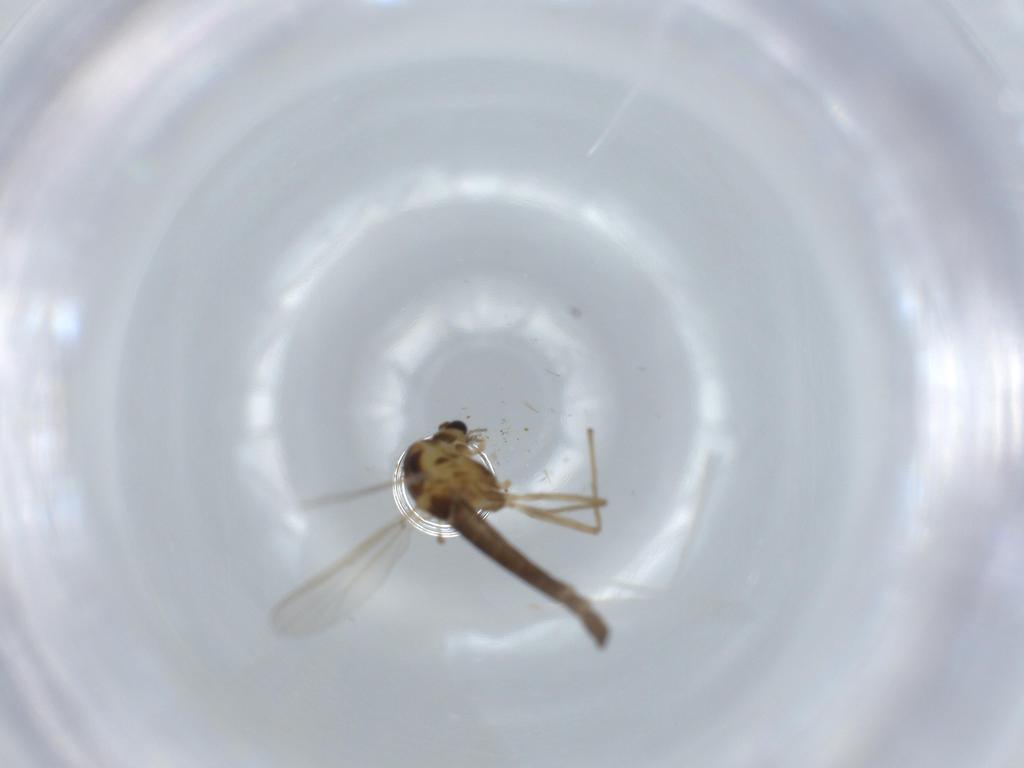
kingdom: Animalia
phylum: Arthropoda
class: Insecta
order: Diptera
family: Chironomidae
